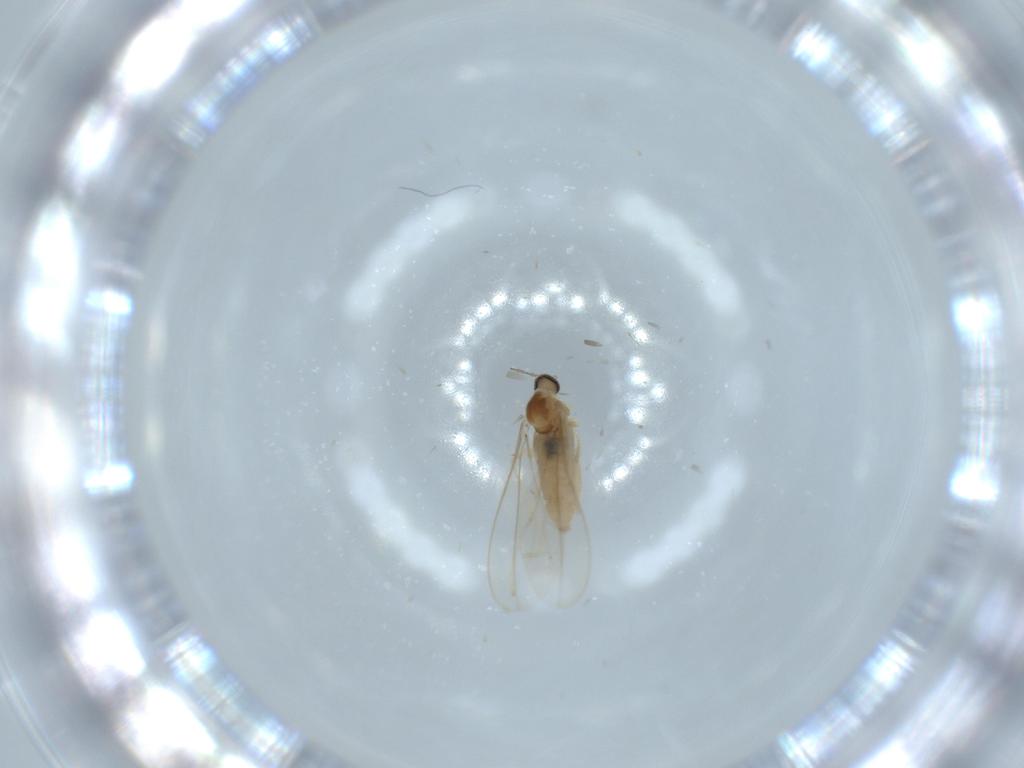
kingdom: Animalia
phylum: Arthropoda
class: Insecta
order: Diptera
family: Cecidomyiidae
